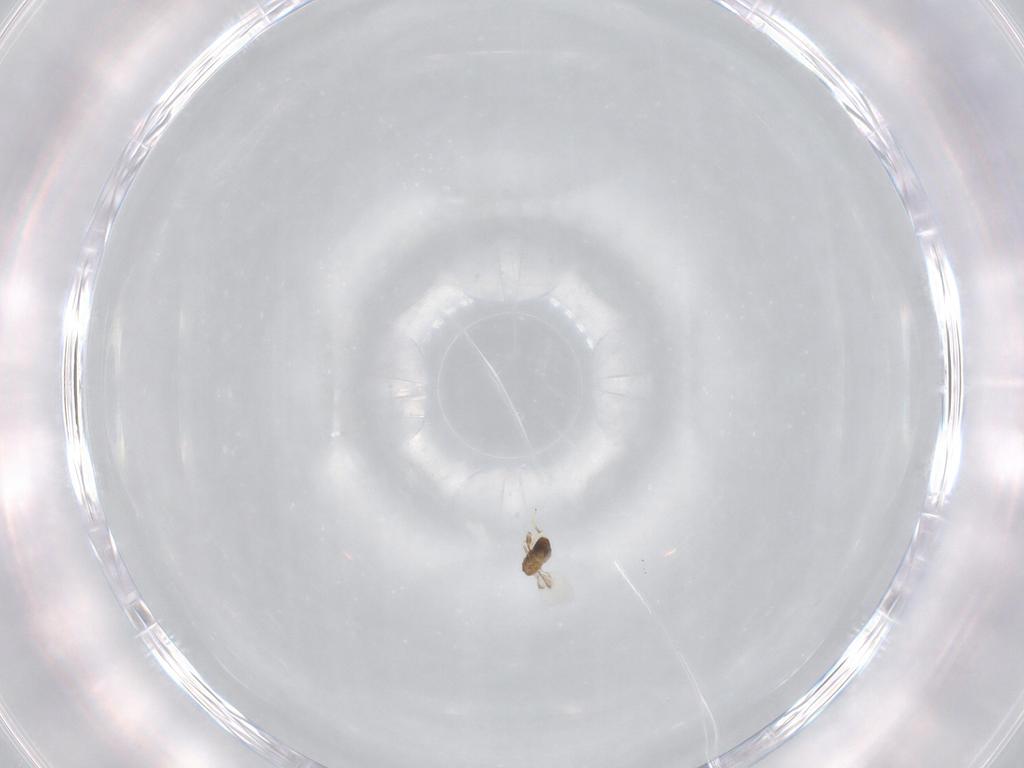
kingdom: Animalia
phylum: Arthropoda
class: Insecta
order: Hymenoptera
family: Trichogrammatidae
